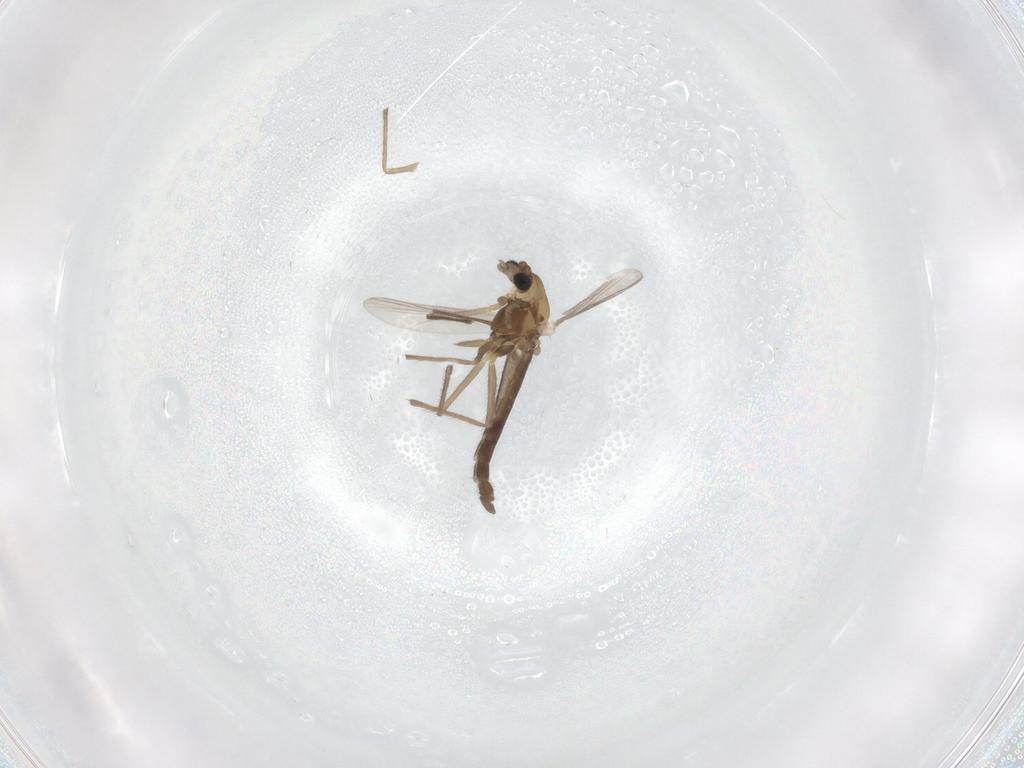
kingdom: Animalia
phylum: Arthropoda
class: Insecta
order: Diptera
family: Chironomidae
